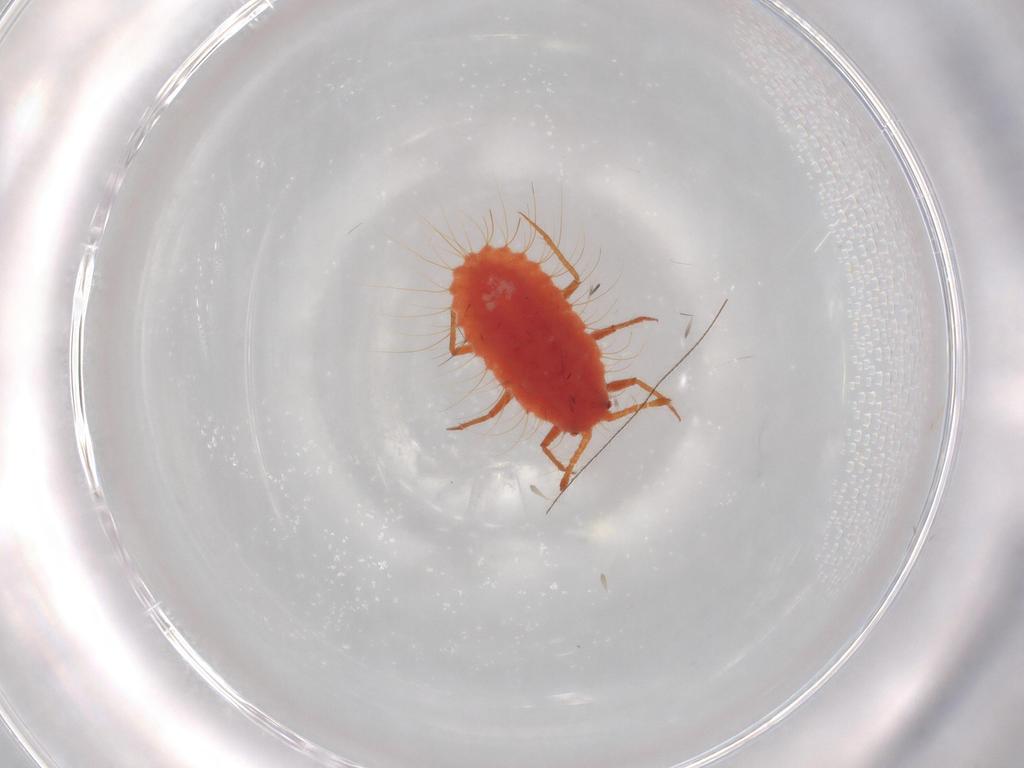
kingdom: Animalia
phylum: Arthropoda
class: Insecta
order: Hemiptera
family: Monophlebidae
